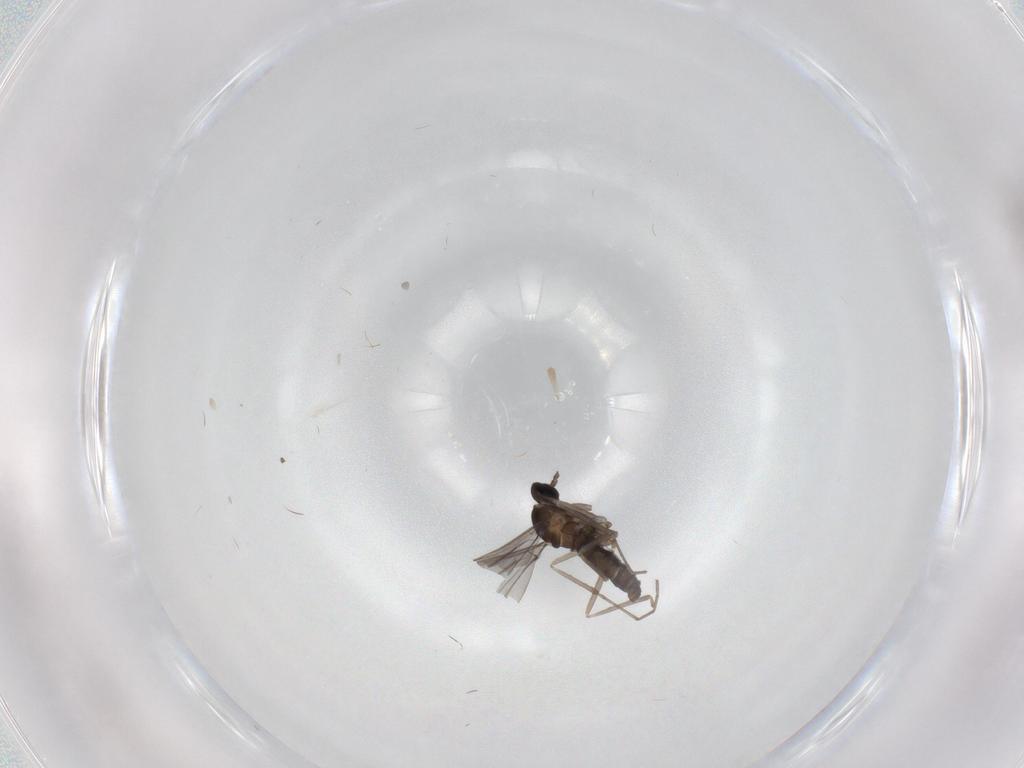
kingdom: Animalia
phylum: Arthropoda
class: Insecta
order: Diptera
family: Cecidomyiidae
